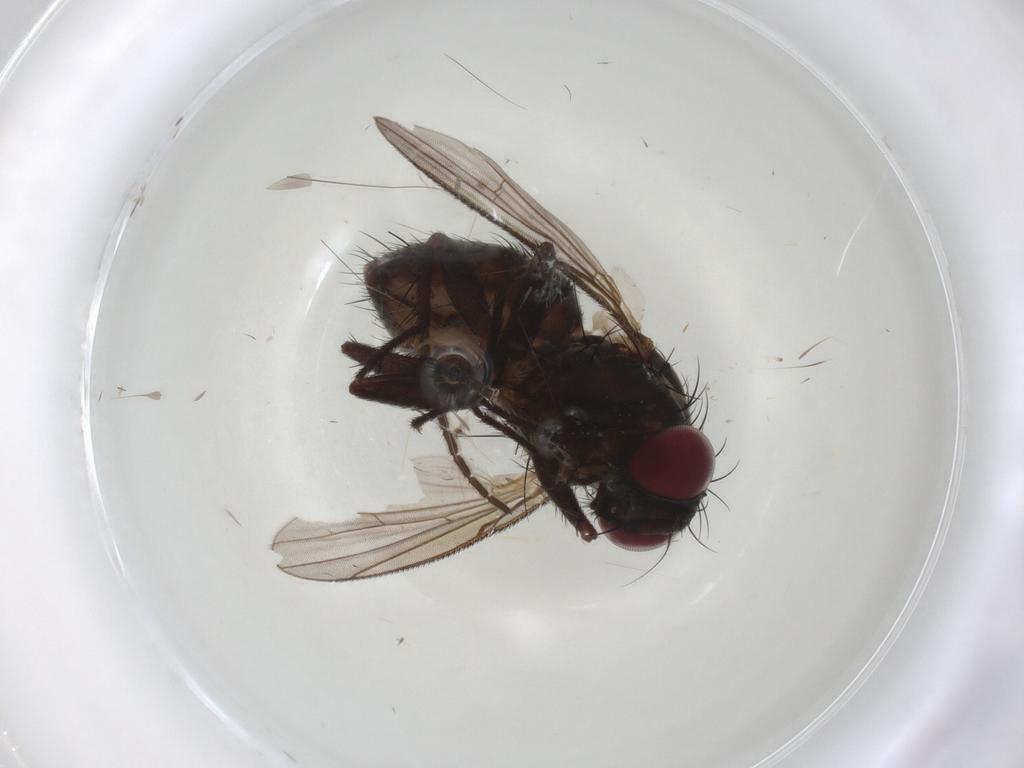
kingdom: Animalia
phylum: Arthropoda
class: Insecta
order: Diptera
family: Muscidae
